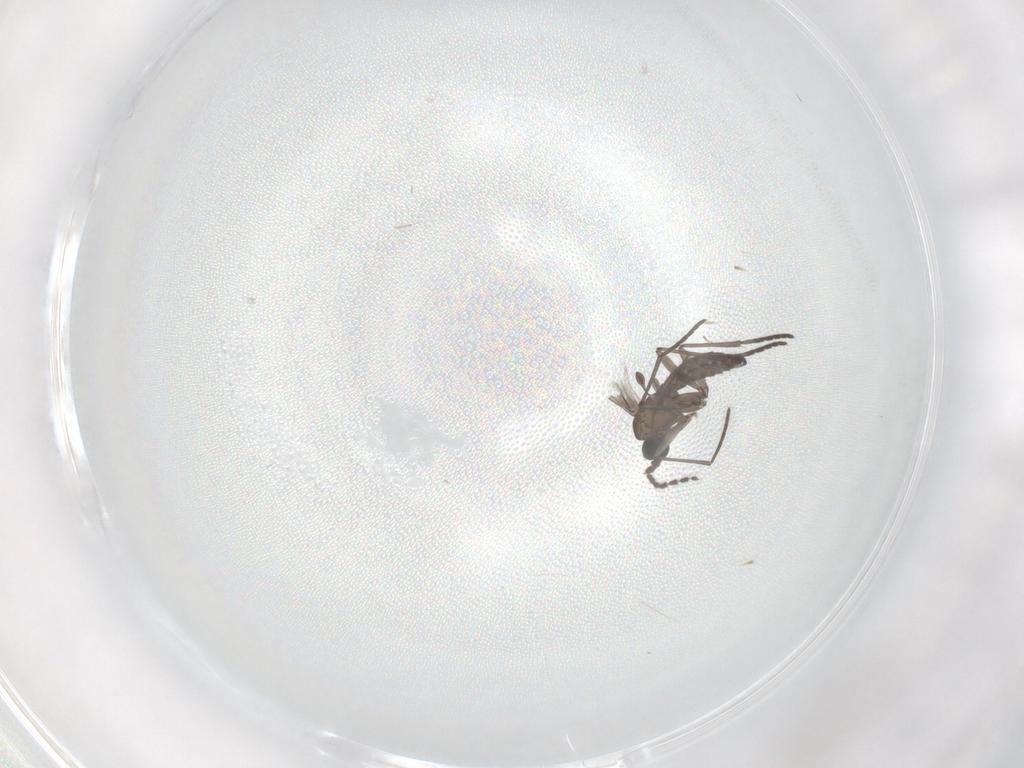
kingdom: Animalia
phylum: Arthropoda
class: Insecta
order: Diptera
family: Chironomidae
